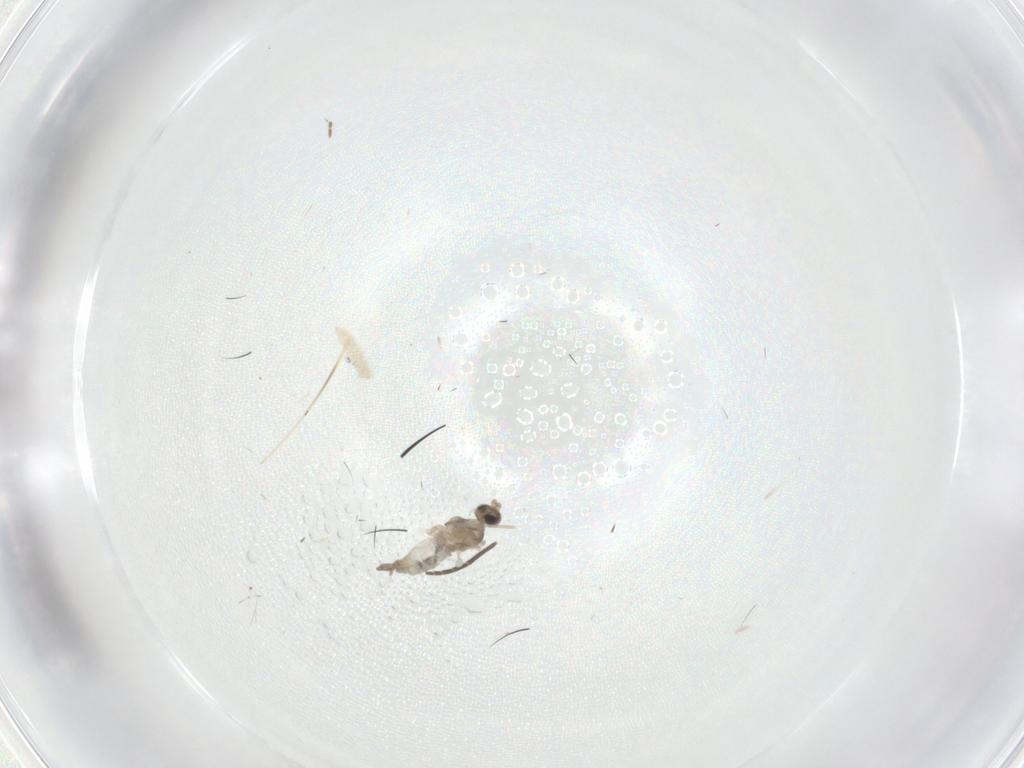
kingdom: Animalia
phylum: Arthropoda
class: Insecta
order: Diptera
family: Cecidomyiidae
